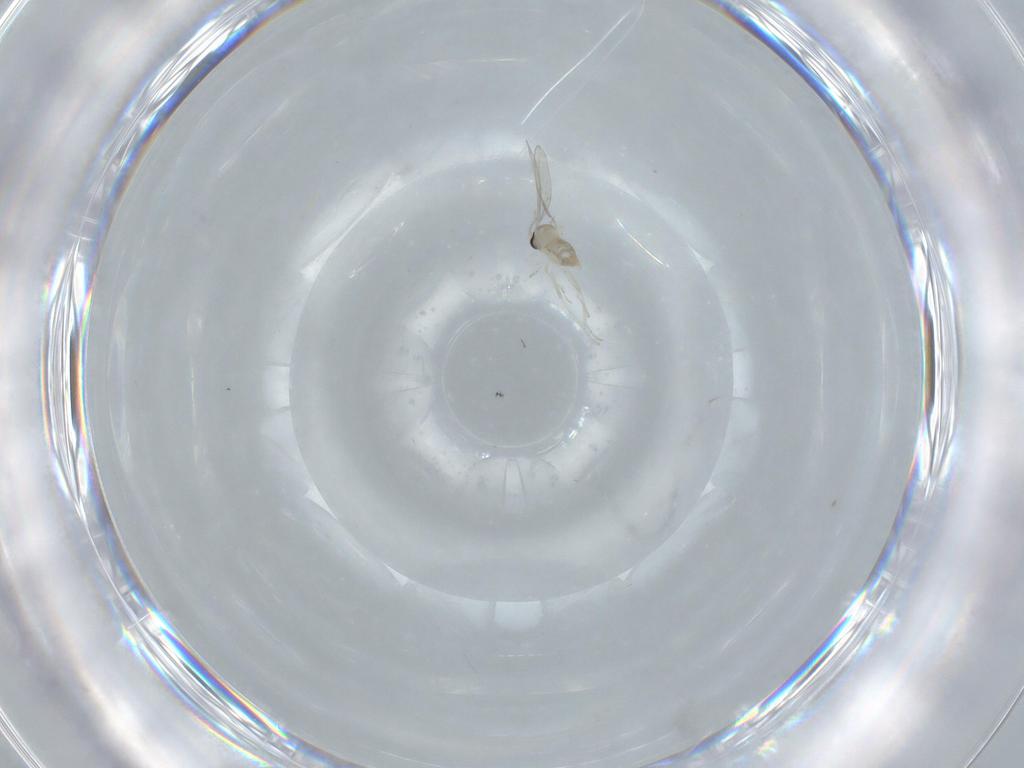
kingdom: Animalia
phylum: Arthropoda
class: Insecta
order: Diptera
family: Cecidomyiidae
